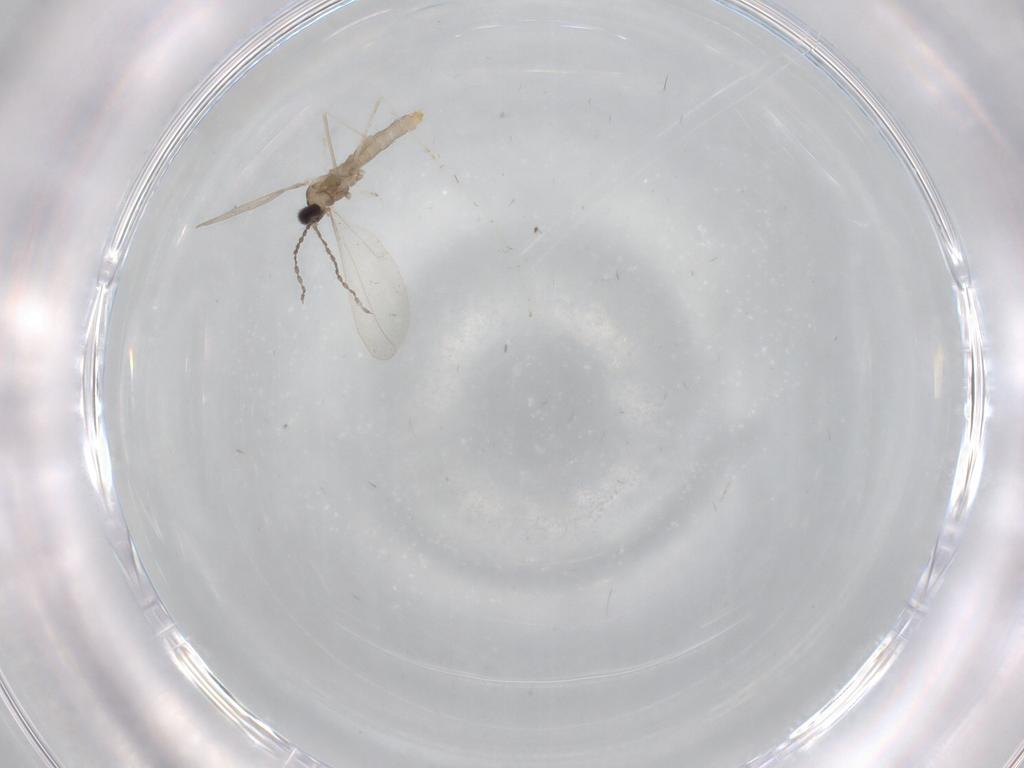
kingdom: Animalia
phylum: Arthropoda
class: Insecta
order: Diptera
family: Cecidomyiidae
